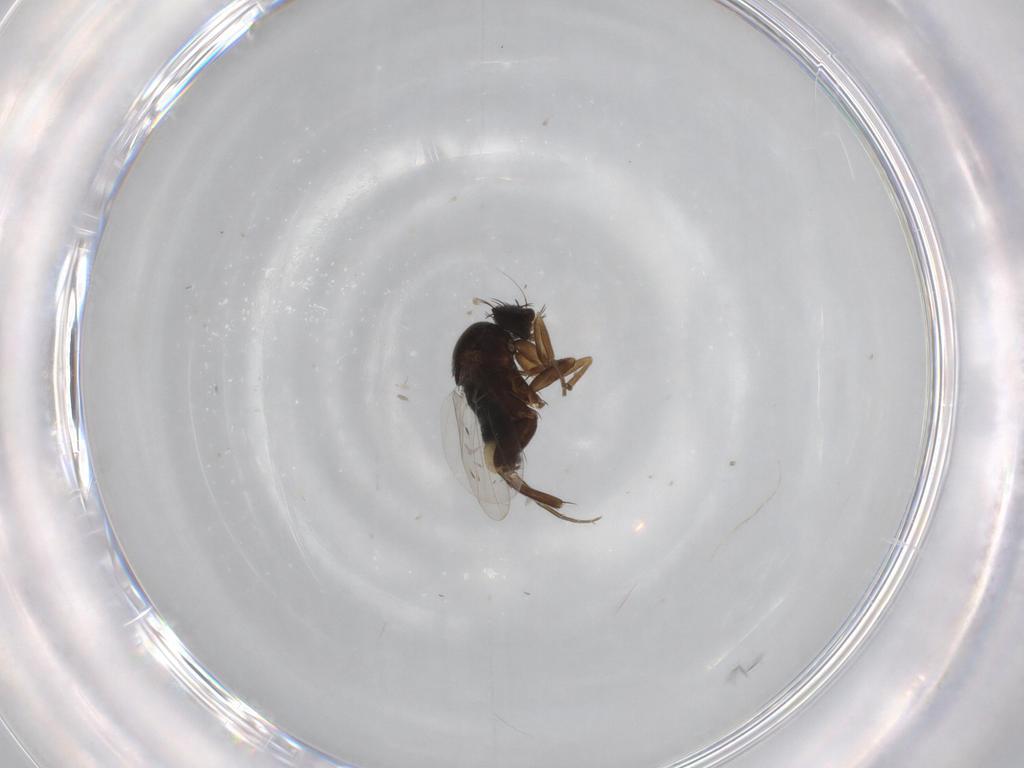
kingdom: Animalia
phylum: Arthropoda
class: Insecta
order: Diptera
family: Phoridae
